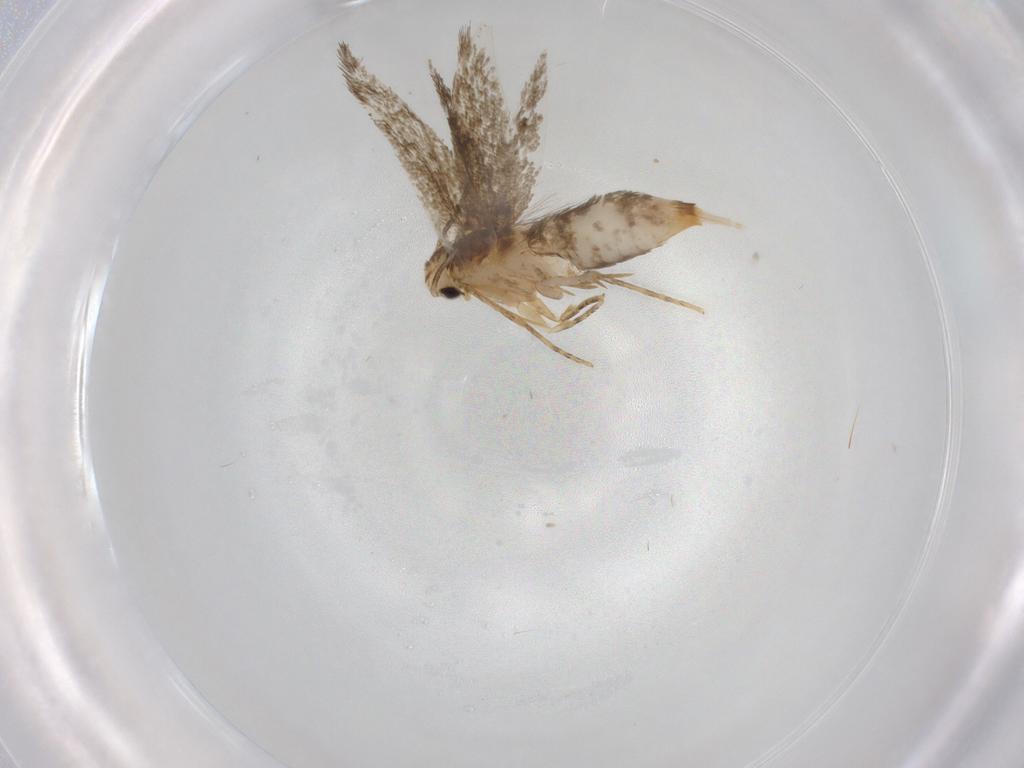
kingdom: Animalia
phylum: Arthropoda
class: Insecta
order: Lepidoptera
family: Tineidae
